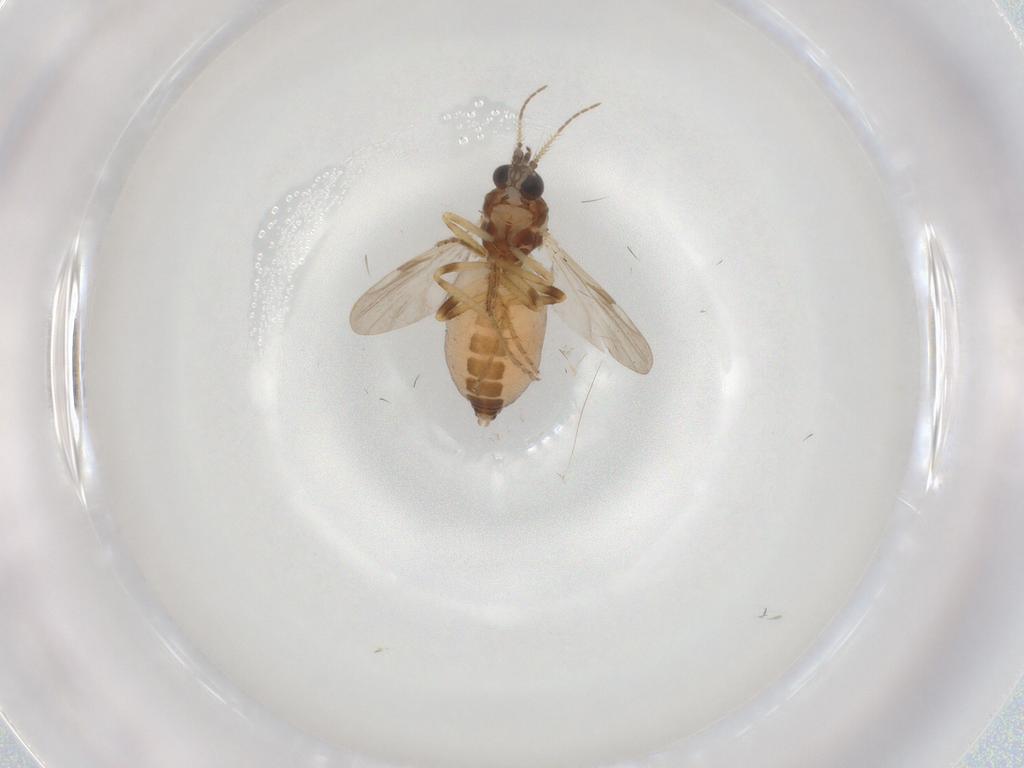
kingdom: Animalia
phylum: Arthropoda
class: Insecta
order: Diptera
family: Ceratopogonidae
